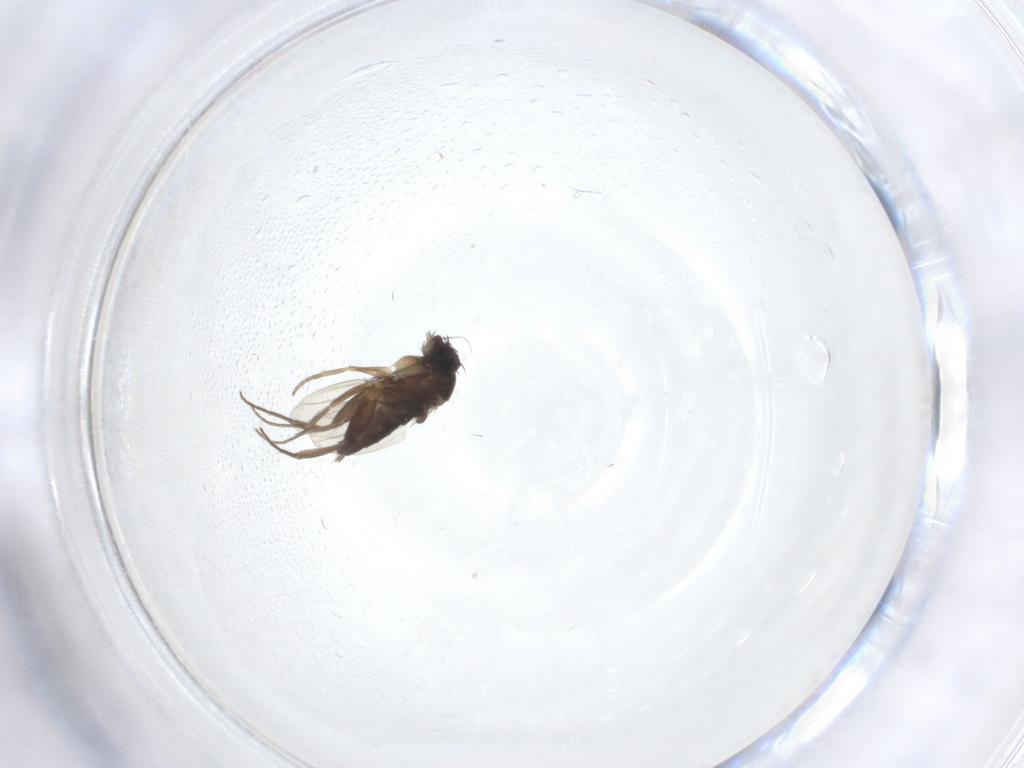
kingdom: Animalia
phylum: Arthropoda
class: Insecta
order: Diptera
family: Phoridae
